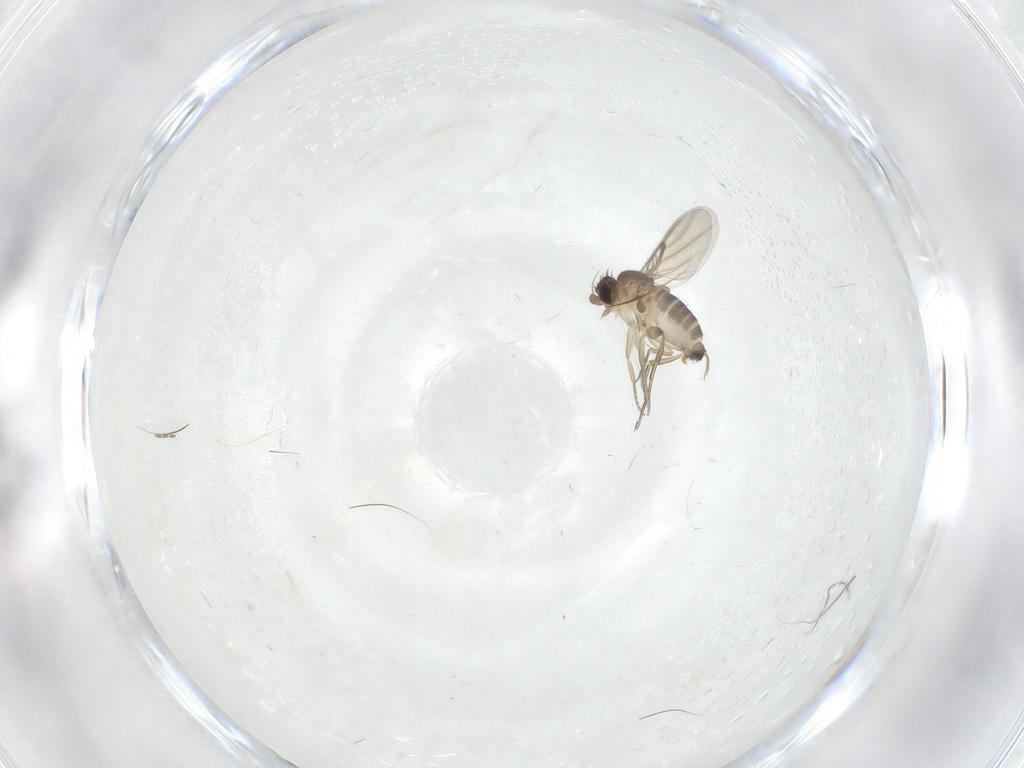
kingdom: Animalia
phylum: Arthropoda
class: Insecta
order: Diptera
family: Phoridae
